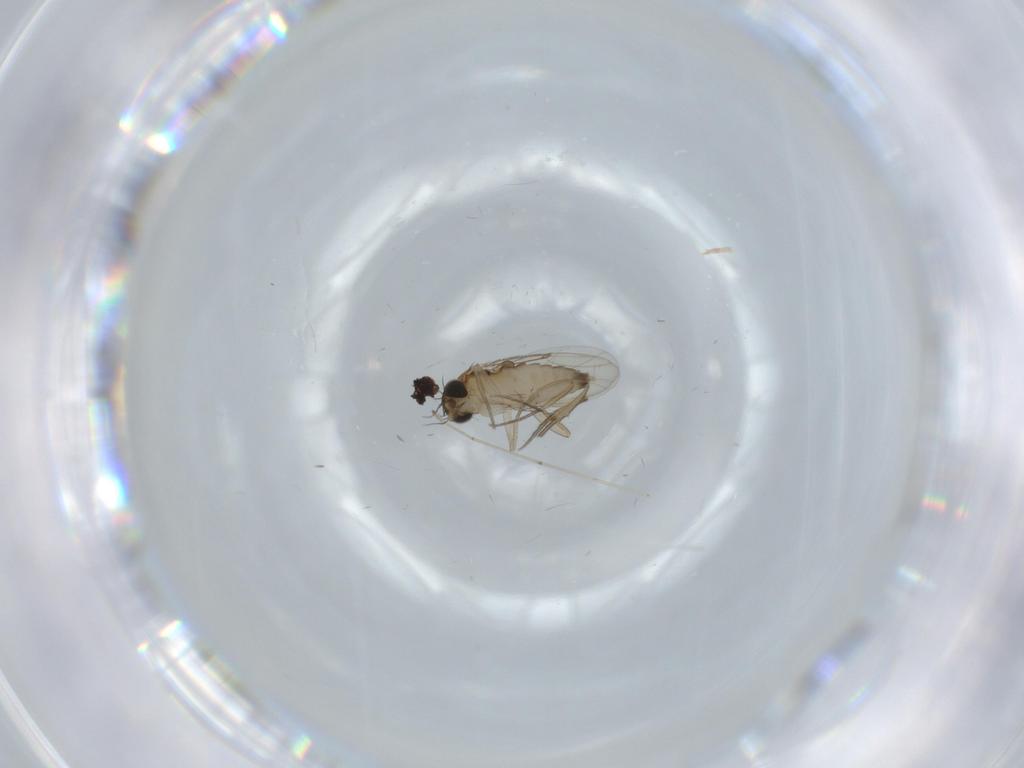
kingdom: Animalia
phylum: Arthropoda
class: Insecta
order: Diptera
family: Phoridae
